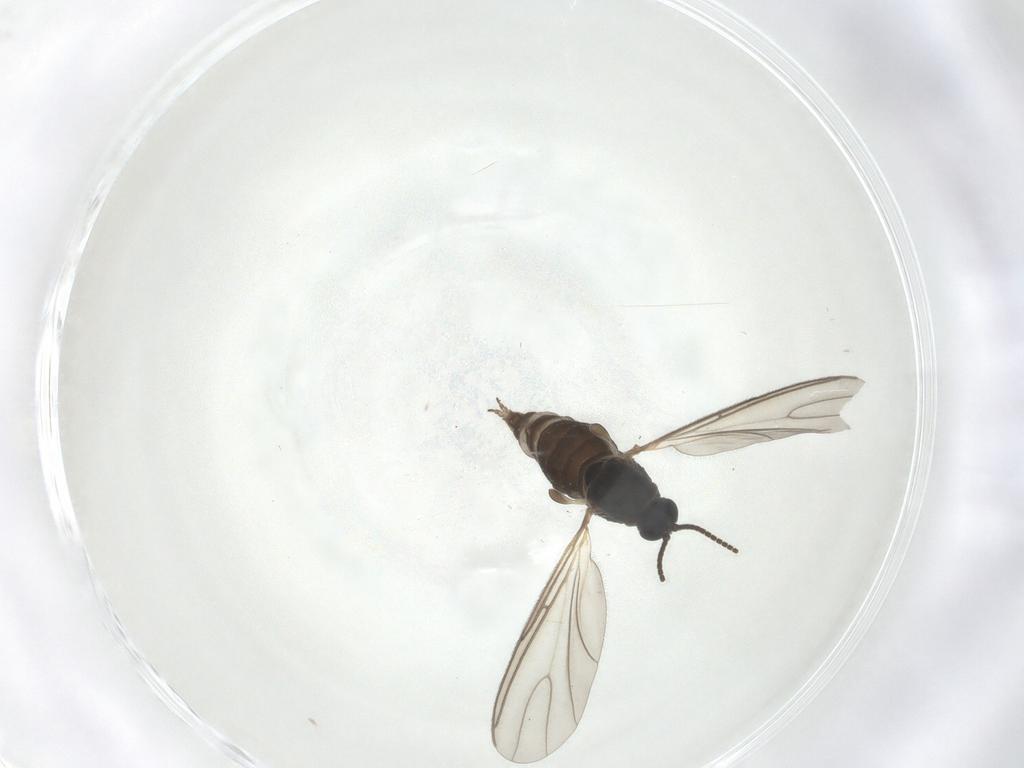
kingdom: Animalia
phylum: Arthropoda
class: Insecta
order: Diptera
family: Sciaridae
